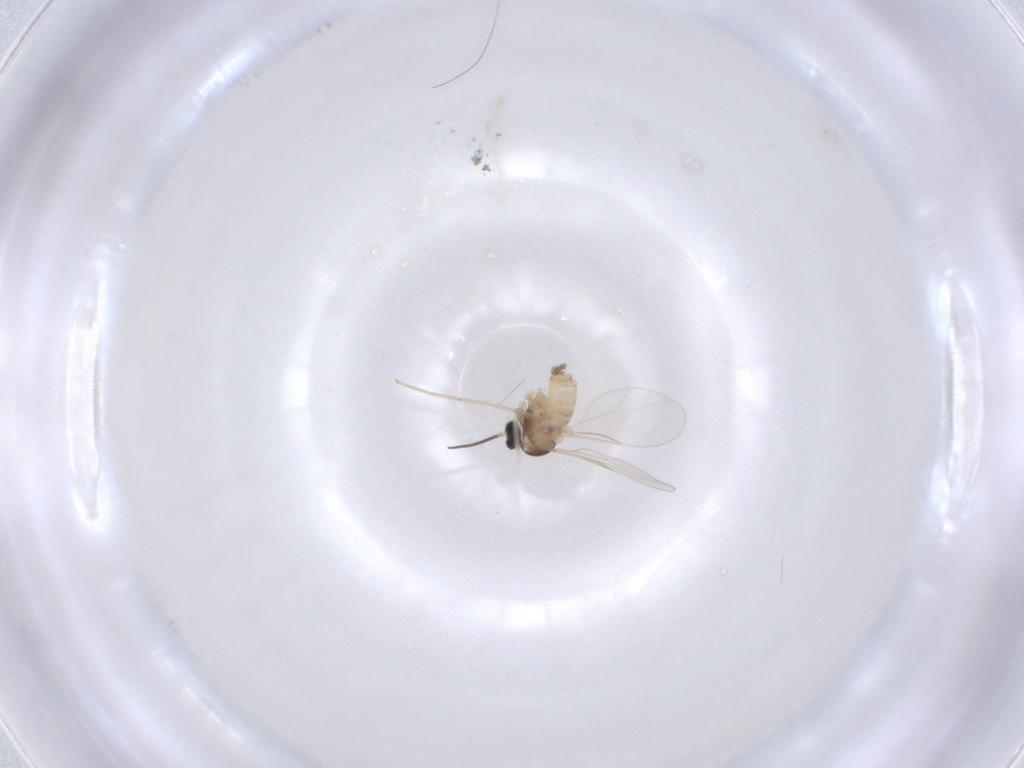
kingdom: Animalia
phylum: Arthropoda
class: Insecta
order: Diptera
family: Cecidomyiidae
